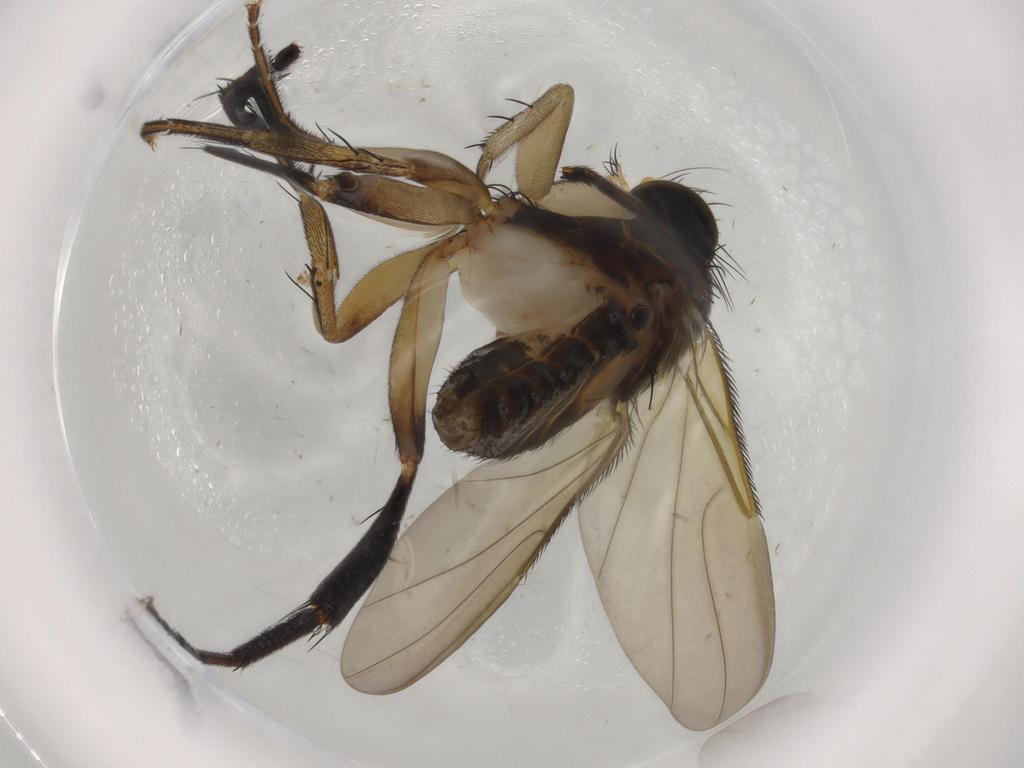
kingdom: Animalia
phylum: Arthropoda
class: Insecta
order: Diptera
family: Phoridae
